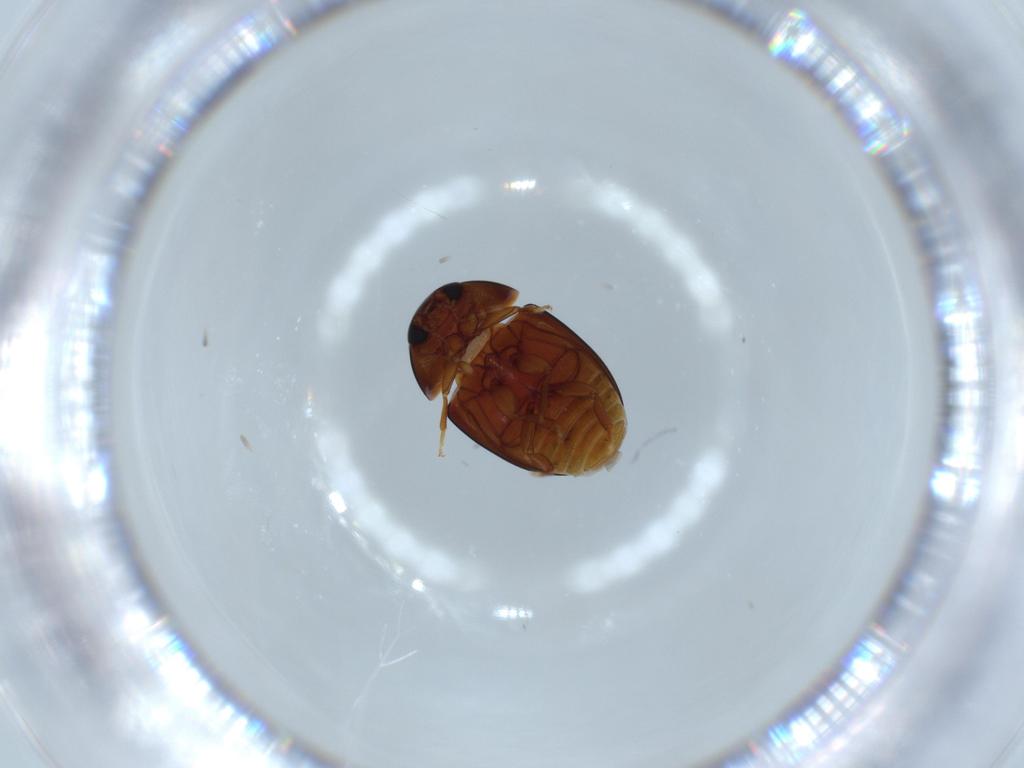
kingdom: Animalia
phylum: Arthropoda
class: Insecta
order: Coleoptera
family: Phalacridae
